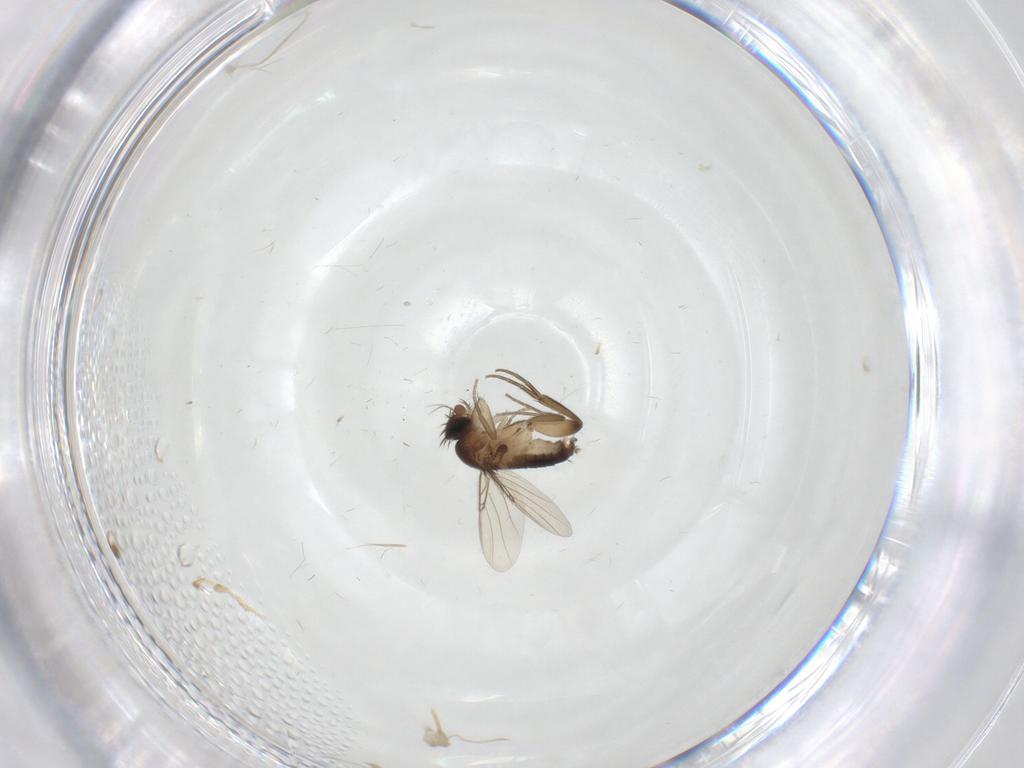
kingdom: Animalia
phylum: Arthropoda
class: Insecta
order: Diptera
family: Phoridae
